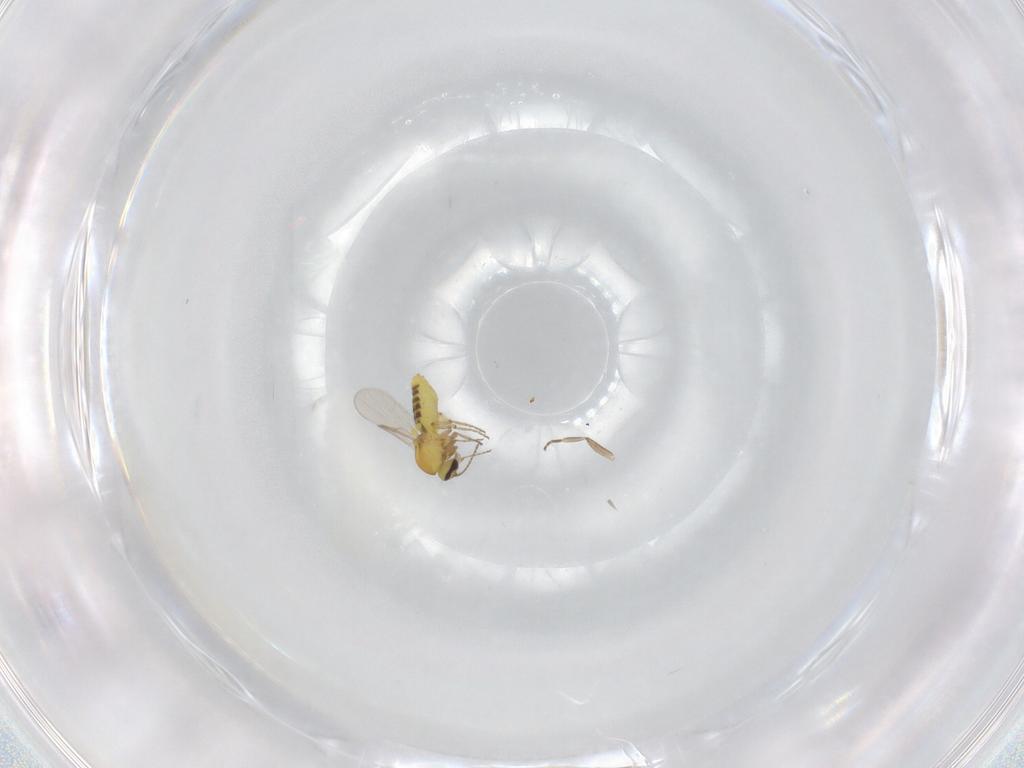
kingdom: Animalia
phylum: Arthropoda
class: Insecta
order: Diptera
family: Ceratopogonidae
